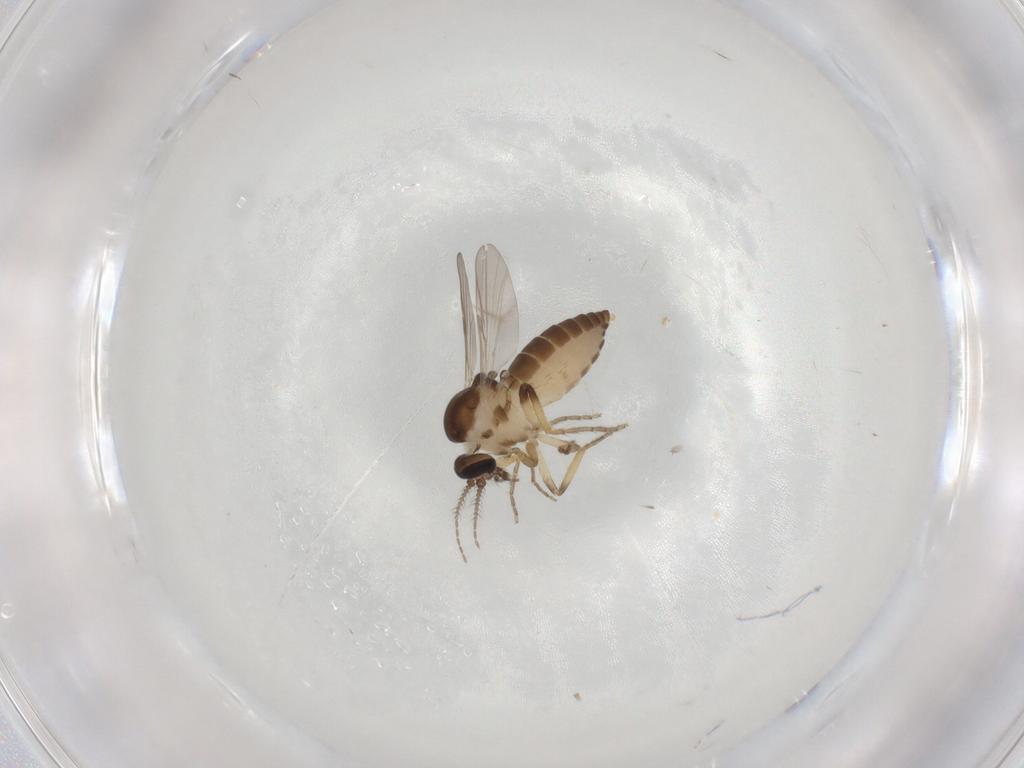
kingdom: Animalia
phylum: Arthropoda
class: Insecta
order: Diptera
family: Ceratopogonidae
